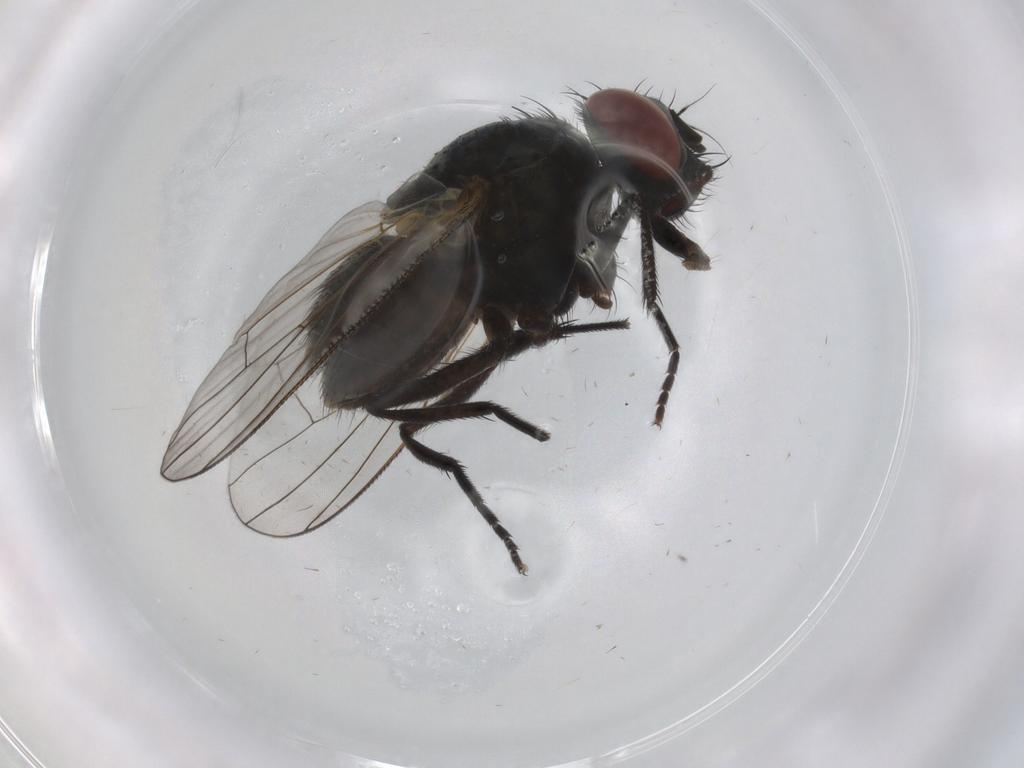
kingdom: Animalia
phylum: Arthropoda
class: Insecta
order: Diptera
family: Muscidae
